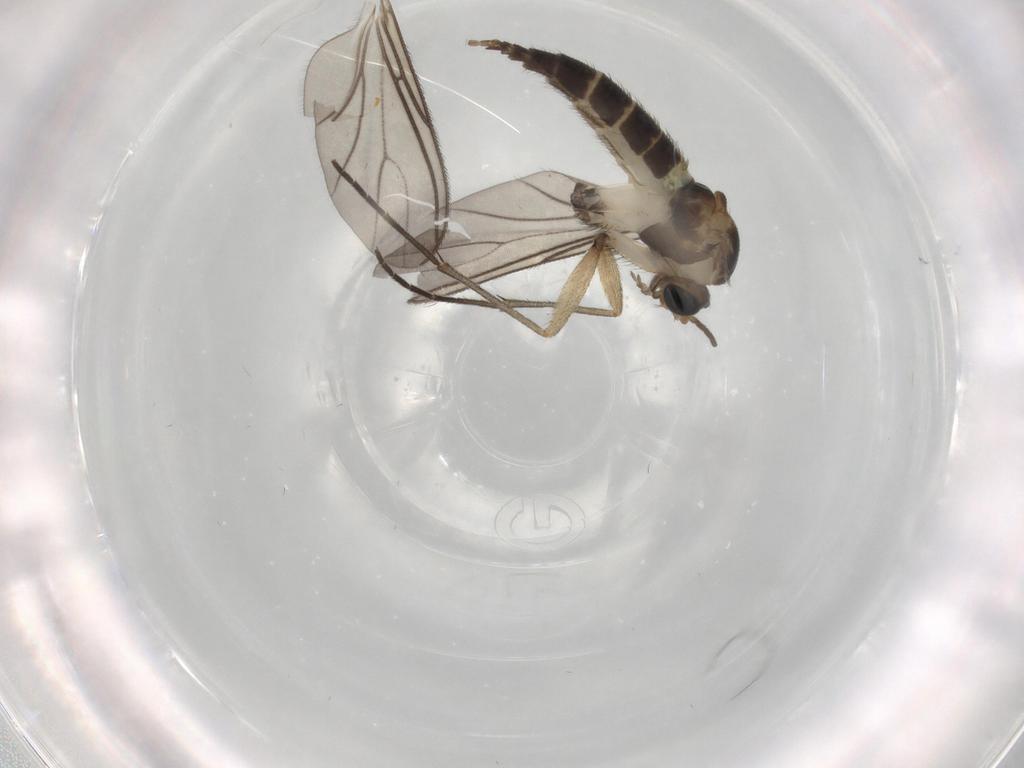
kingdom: Animalia
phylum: Arthropoda
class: Insecta
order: Diptera
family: Sciaridae
